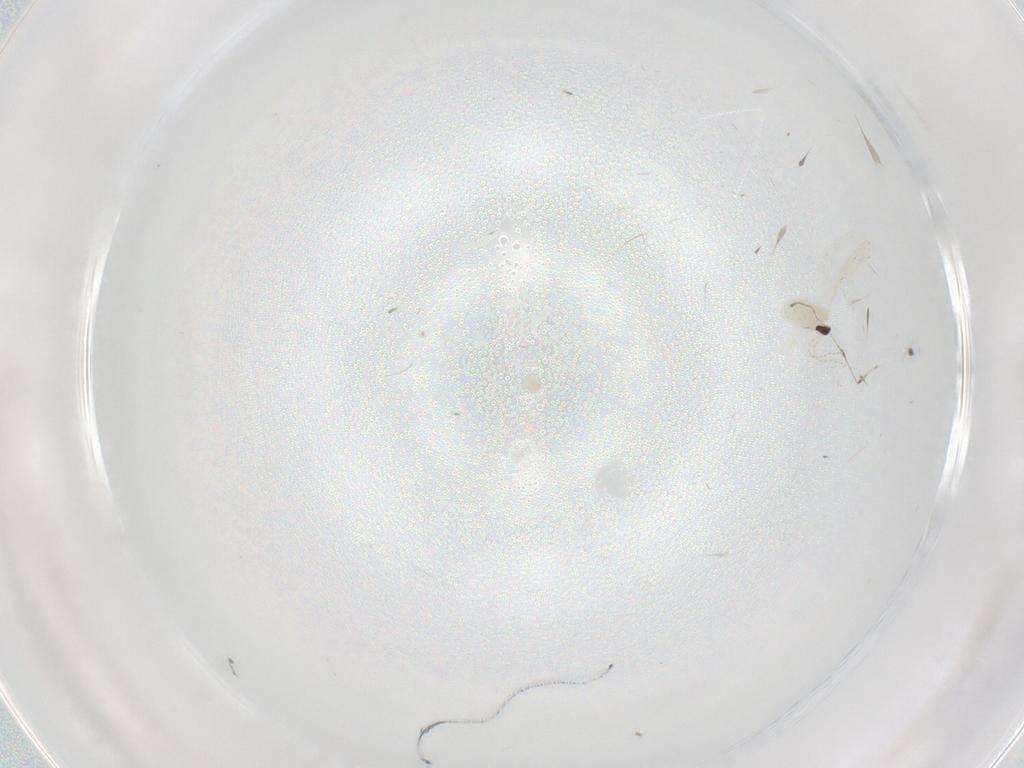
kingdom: Animalia
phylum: Arthropoda
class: Insecta
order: Diptera
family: Cecidomyiidae
